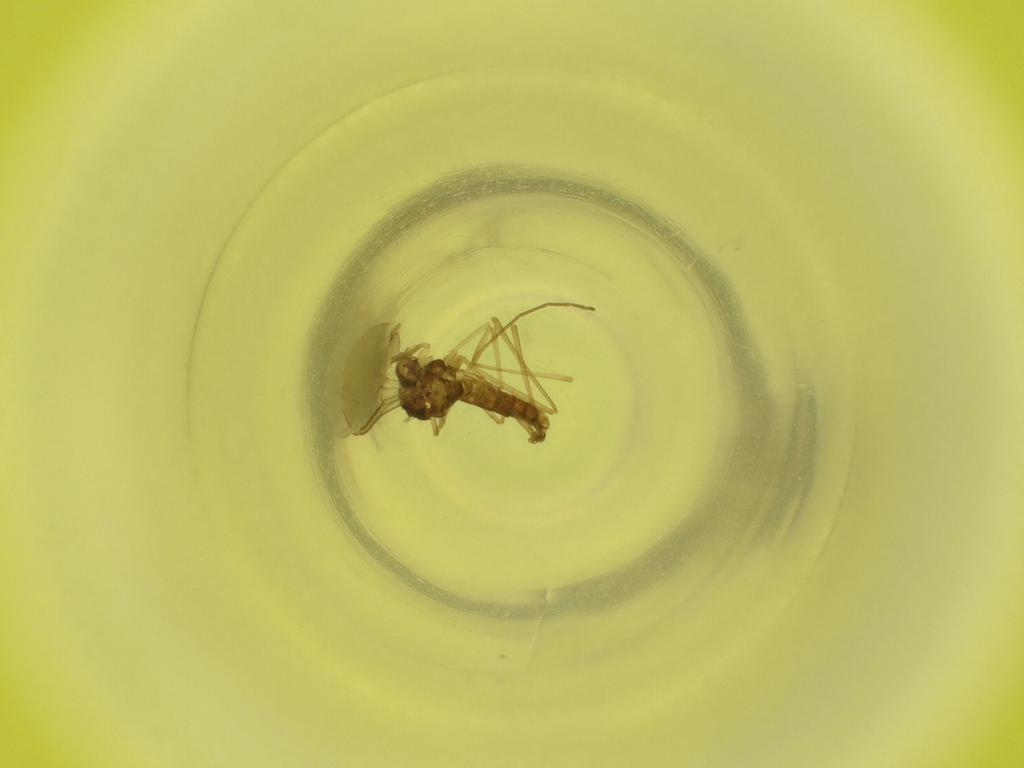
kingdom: Animalia
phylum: Arthropoda
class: Insecta
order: Diptera
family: Cecidomyiidae
